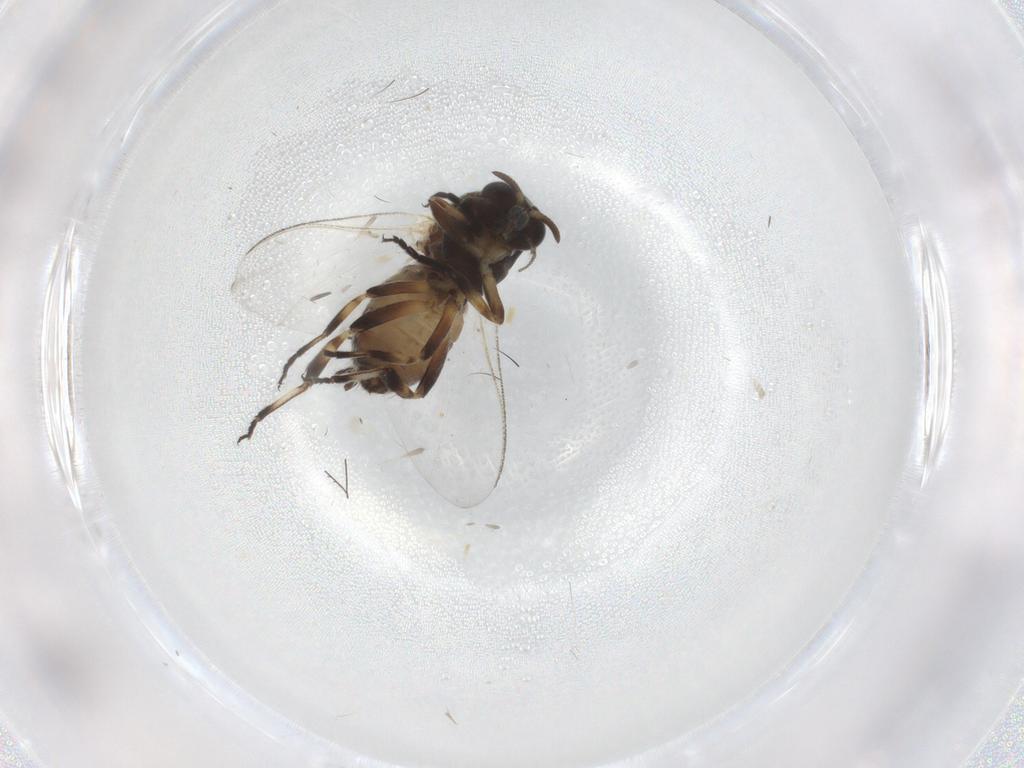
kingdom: Animalia
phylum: Arthropoda
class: Insecta
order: Diptera
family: Simuliidae
